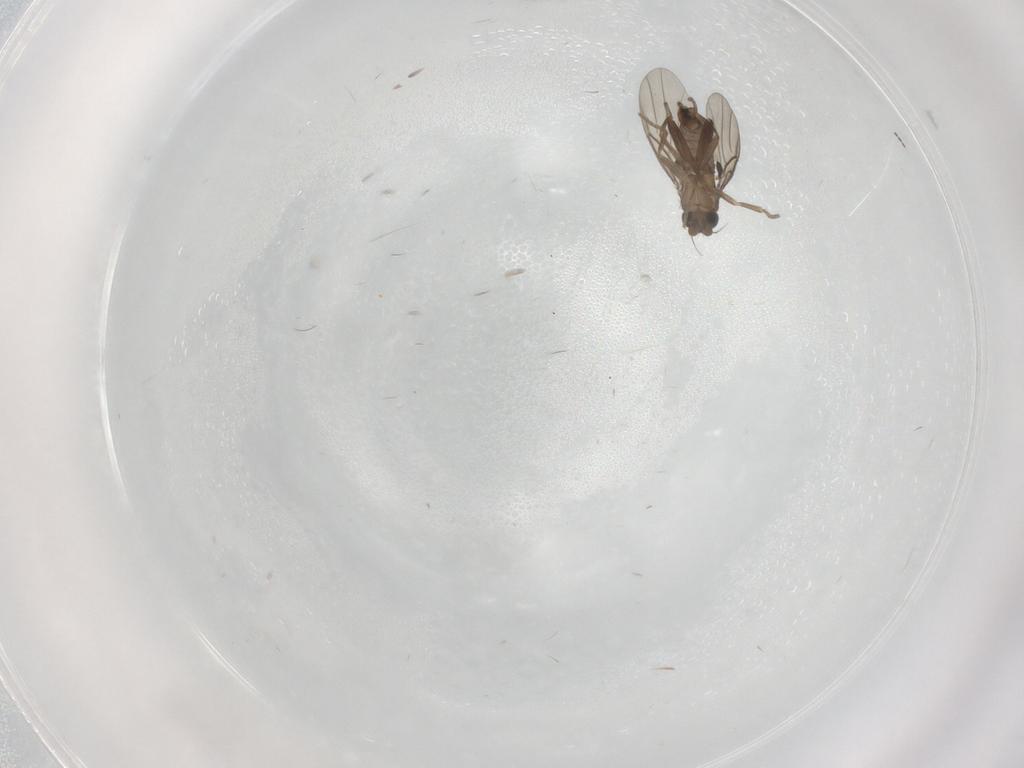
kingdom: Animalia
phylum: Arthropoda
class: Insecta
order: Diptera
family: Cecidomyiidae
